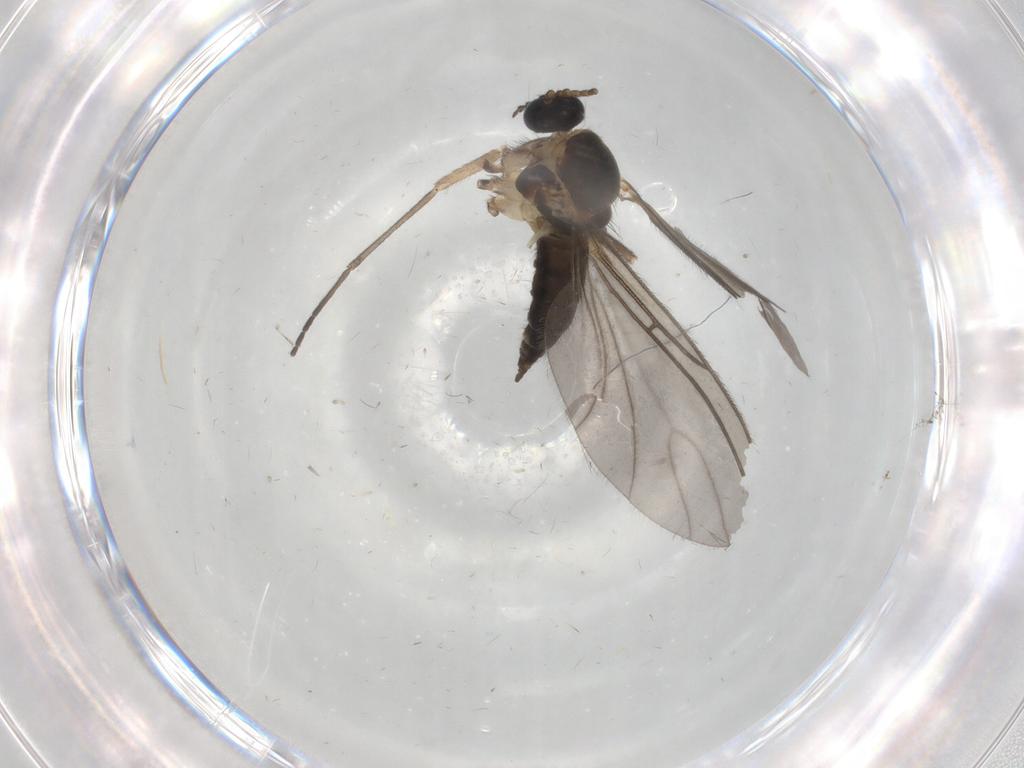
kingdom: Animalia
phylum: Arthropoda
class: Insecta
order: Diptera
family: Sciaridae
